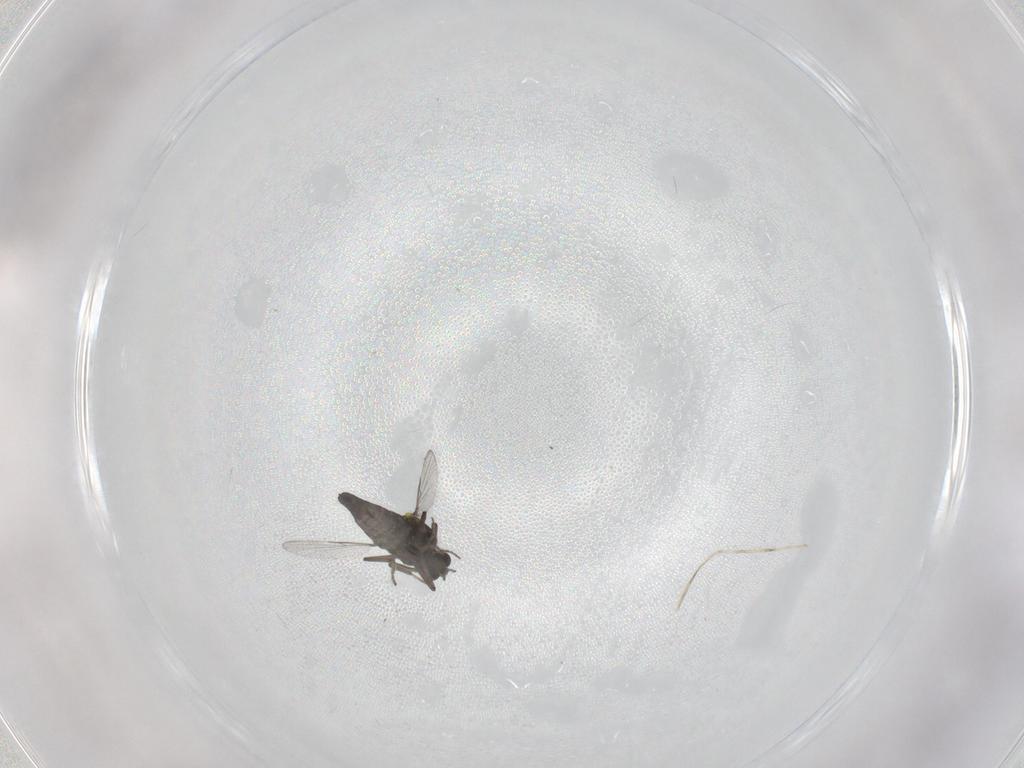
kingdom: Animalia
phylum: Arthropoda
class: Insecta
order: Diptera
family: Ceratopogonidae
